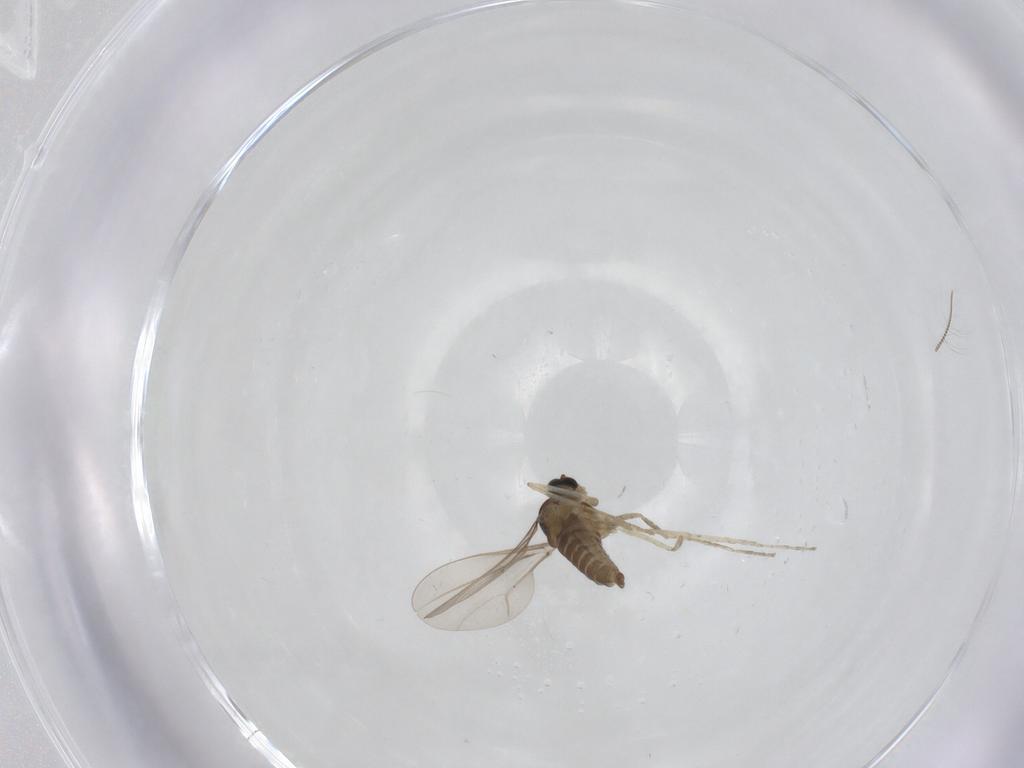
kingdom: Animalia
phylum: Arthropoda
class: Insecta
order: Diptera
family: Cecidomyiidae
